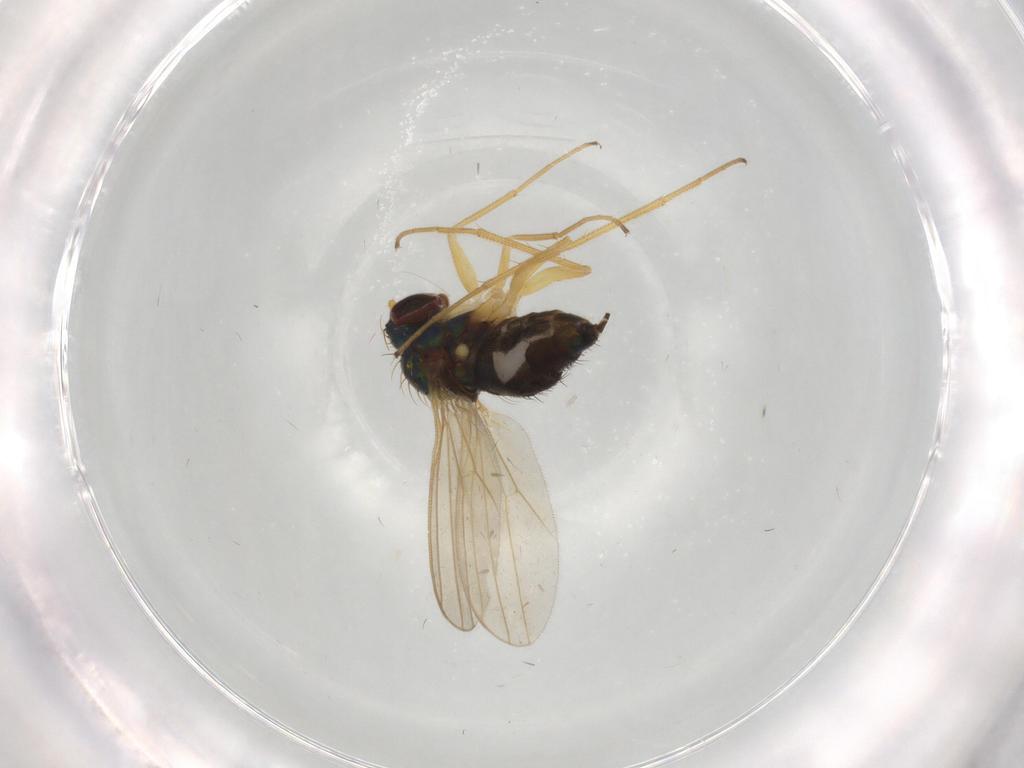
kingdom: Animalia
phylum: Arthropoda
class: Insecta
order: Diptera
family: Dolichopodidae
